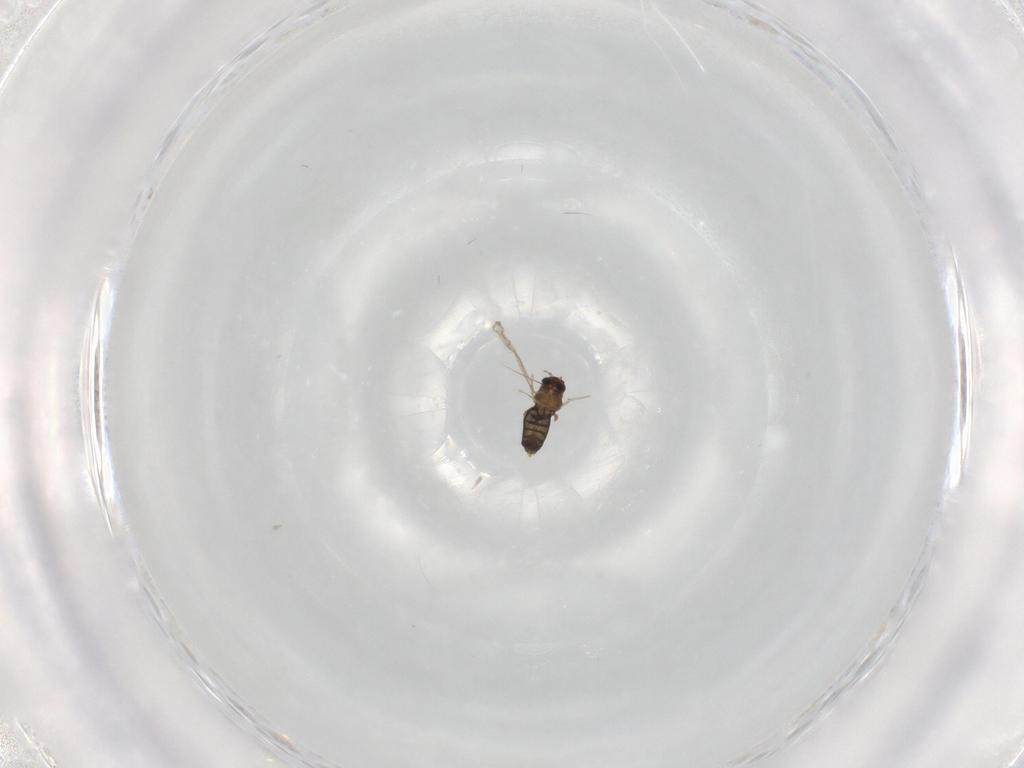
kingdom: Animalia
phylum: Arthropoda
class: Insecta
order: Diptera
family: Chironomidae
